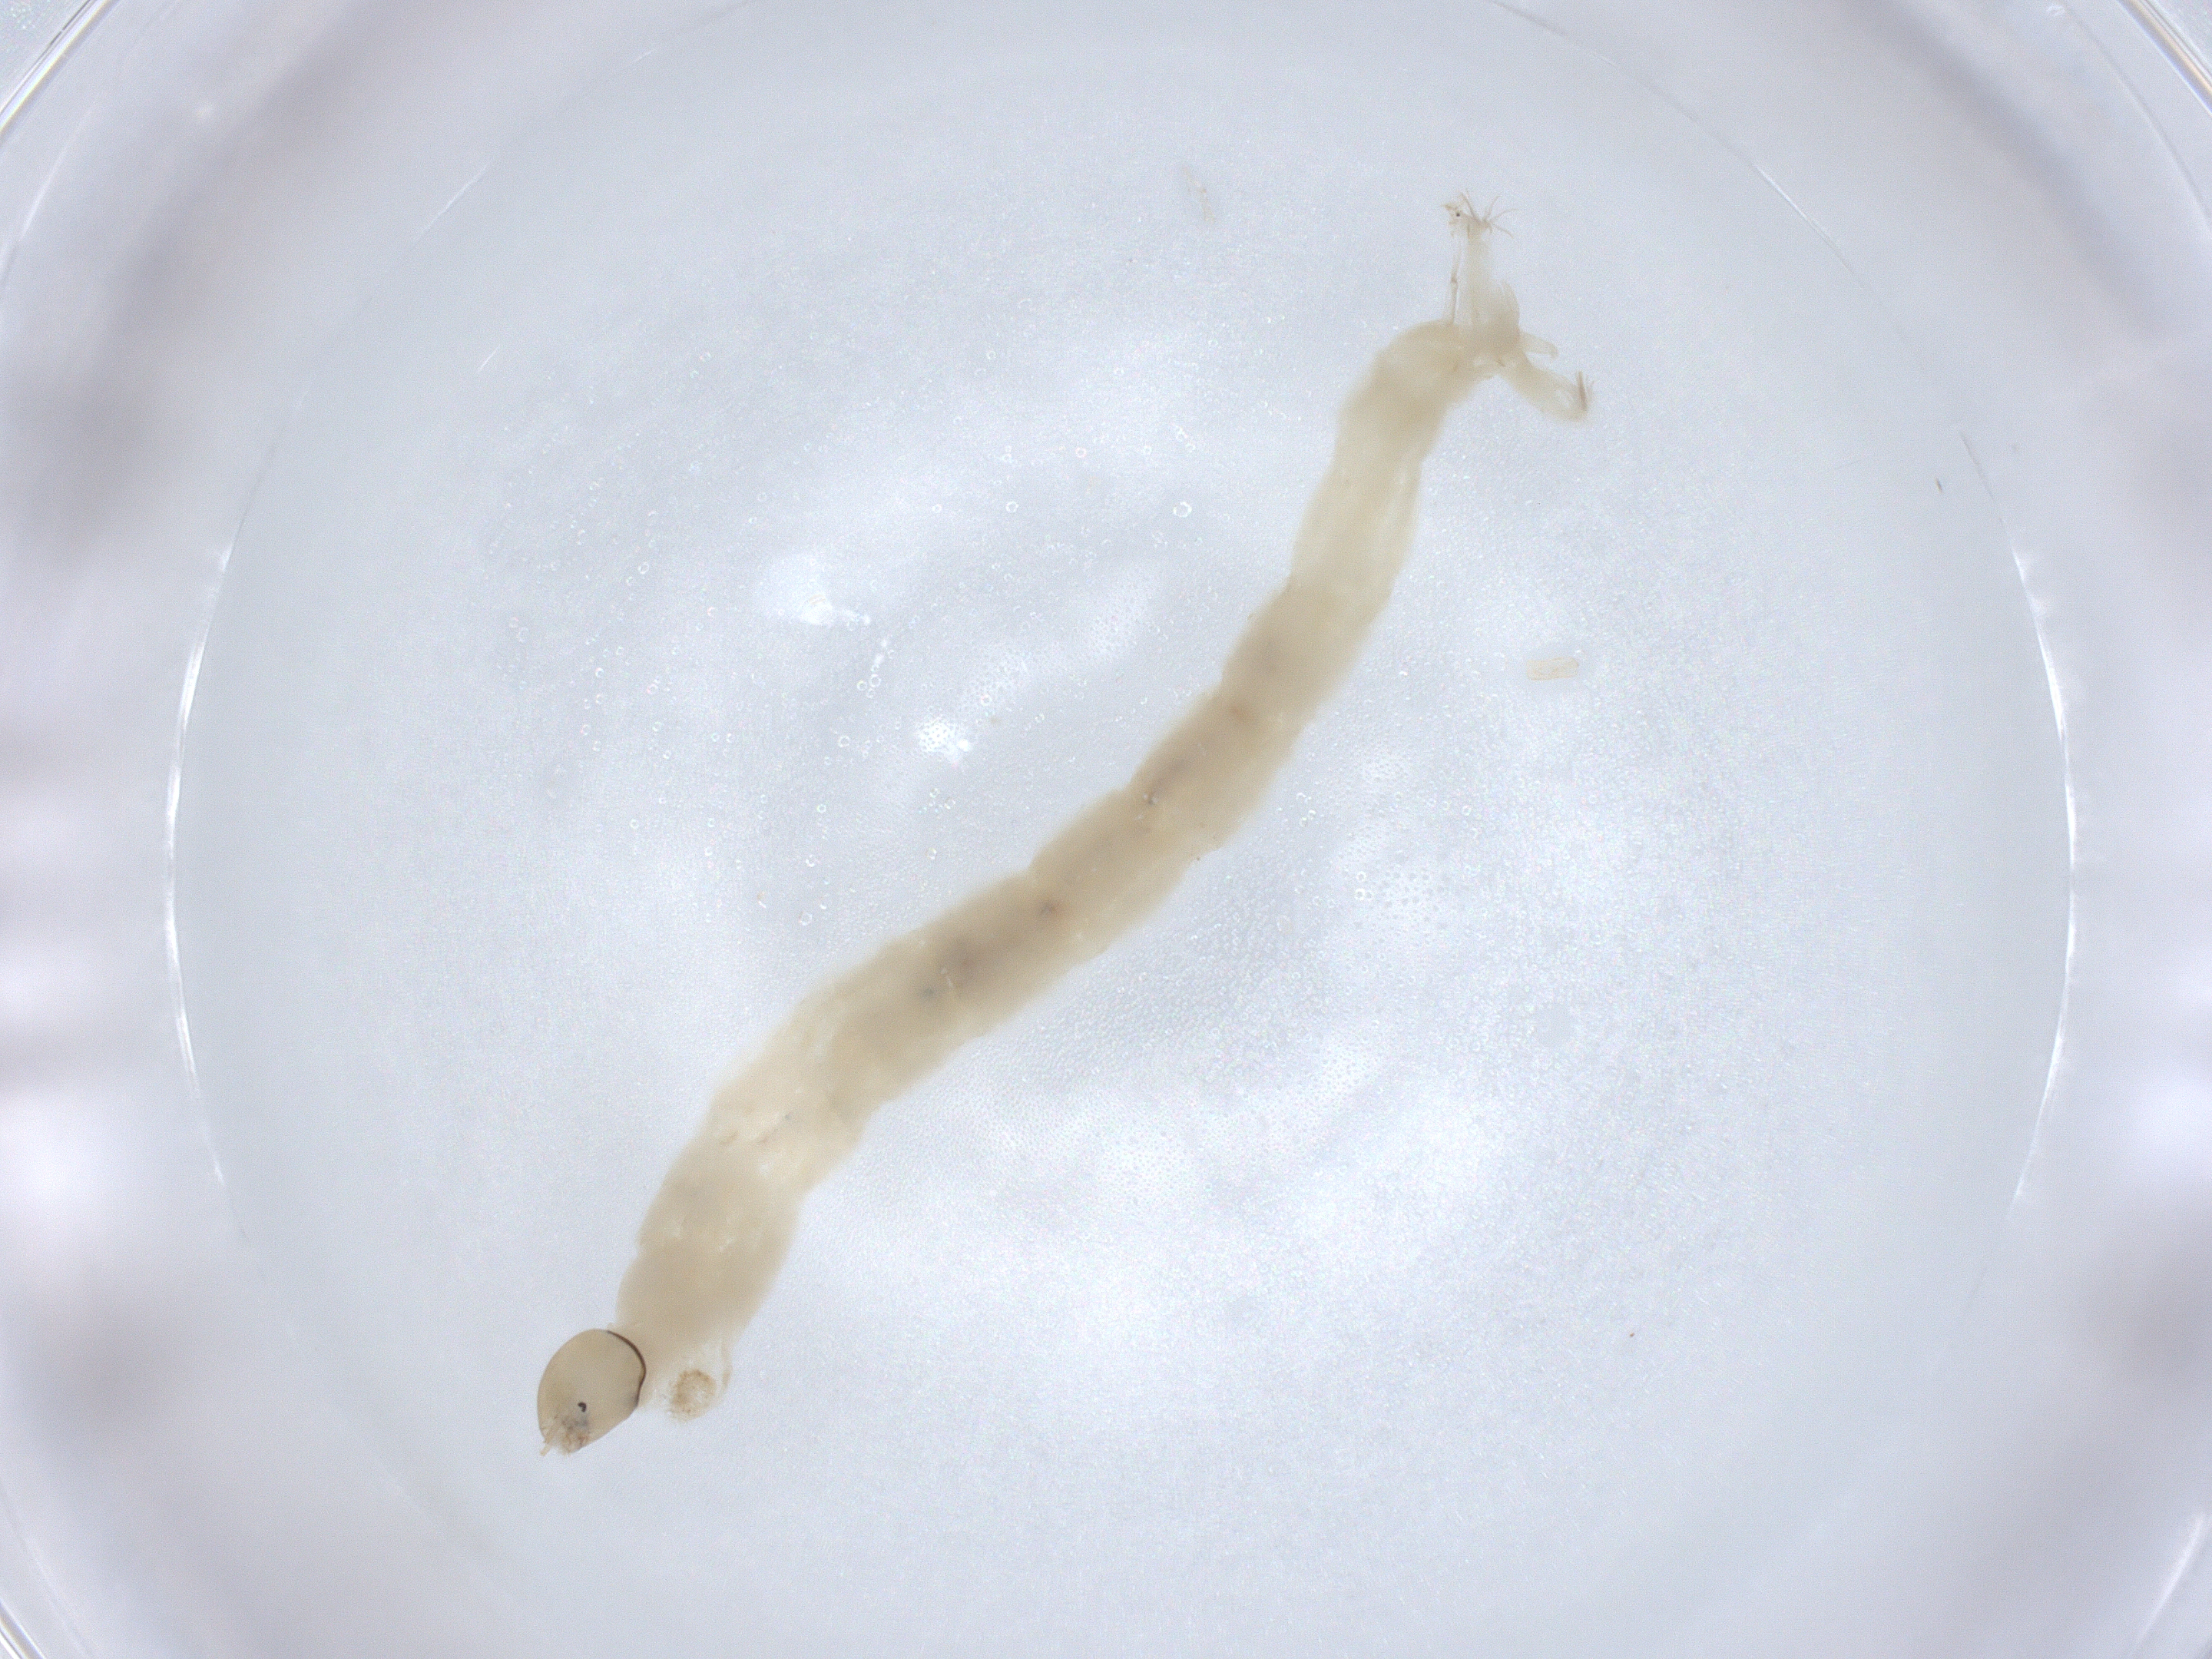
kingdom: Animalia
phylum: Arthropoda
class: Insecta
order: Diptera
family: Chironomidae
